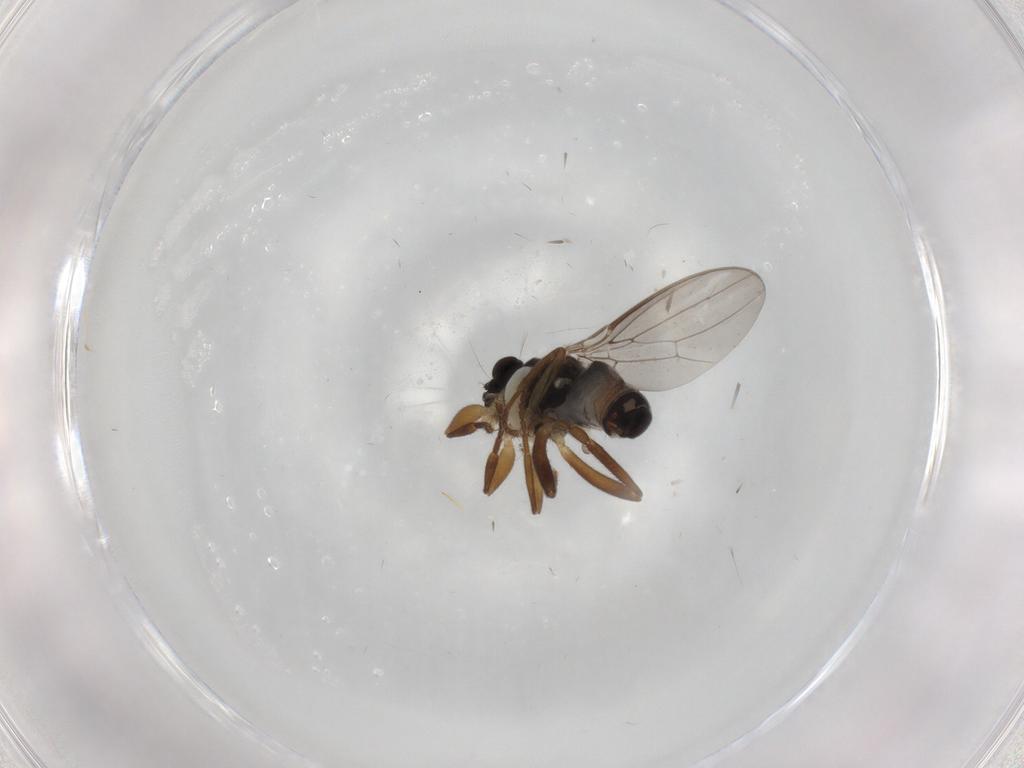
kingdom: Animalia
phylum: Arthropoda
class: Insecta
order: Diptera
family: Sphaeroceridae
